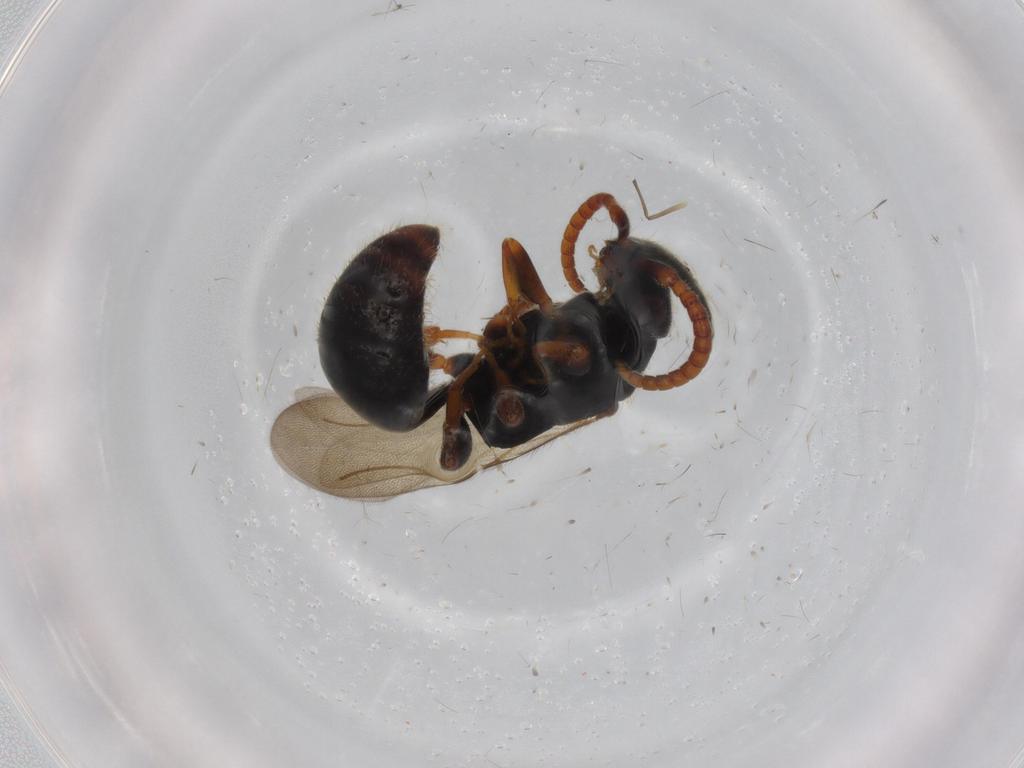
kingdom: Animalia
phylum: Arthropoda
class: Insecta
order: Hymenoptera
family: Bethylidae
